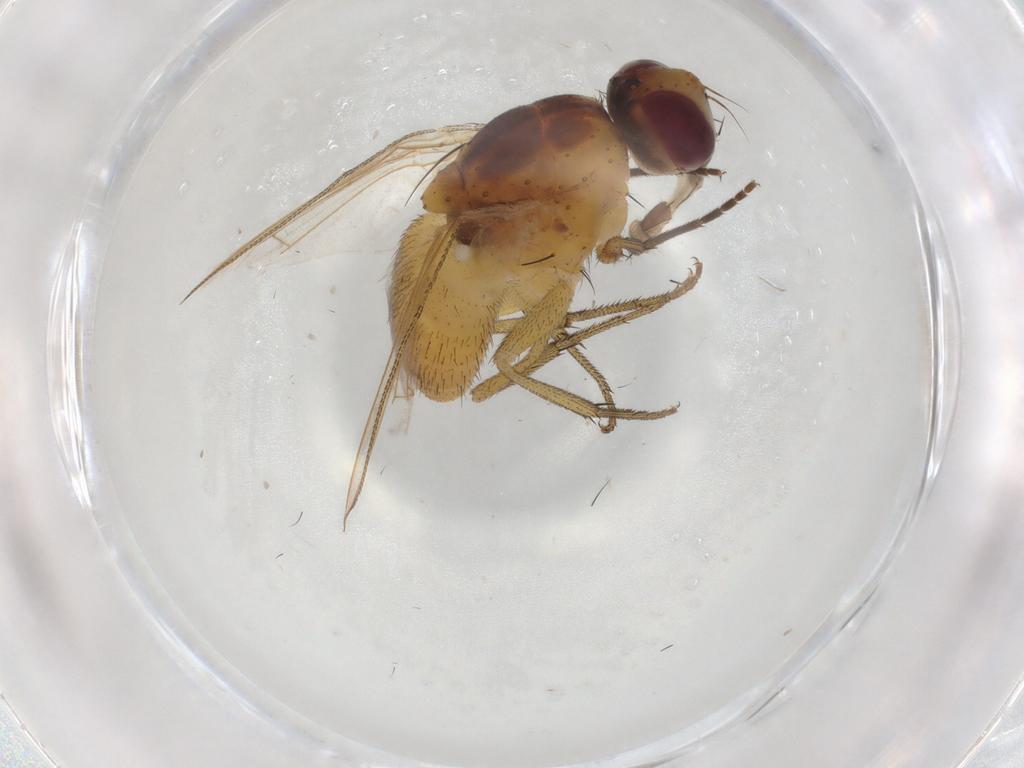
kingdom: Animalia
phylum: Arthropoda
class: Insecta
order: Diptera
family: Muscidae
